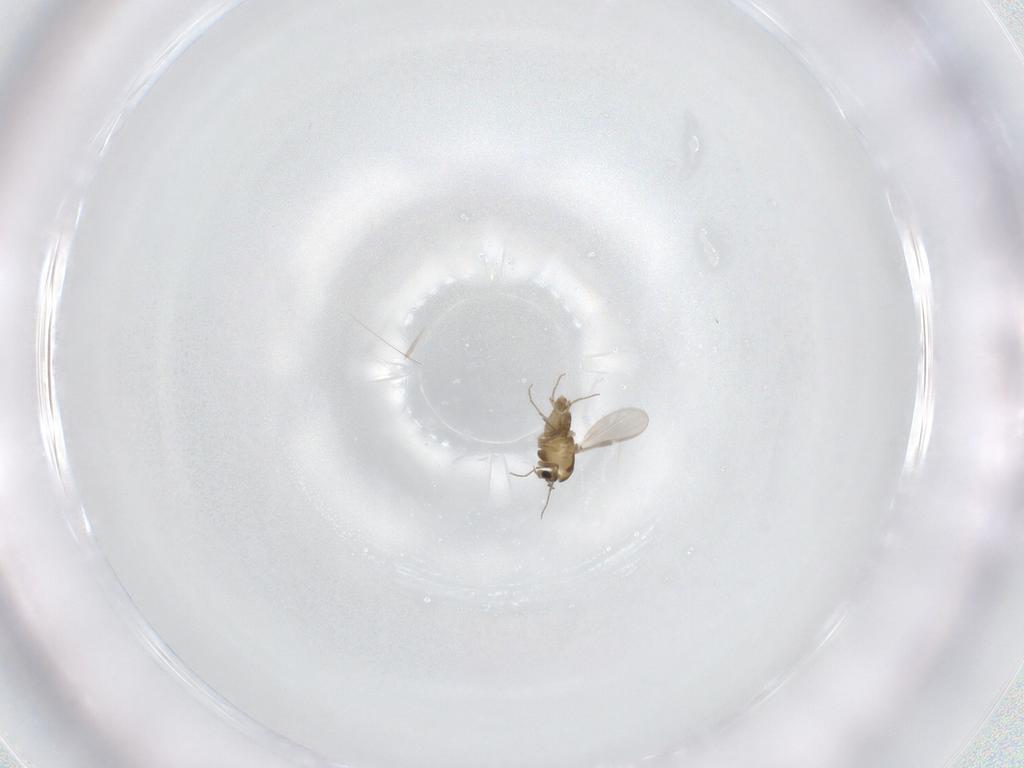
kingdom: Animalia
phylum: Arthropoda
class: Insecta
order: Diptera
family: Chironomidae
